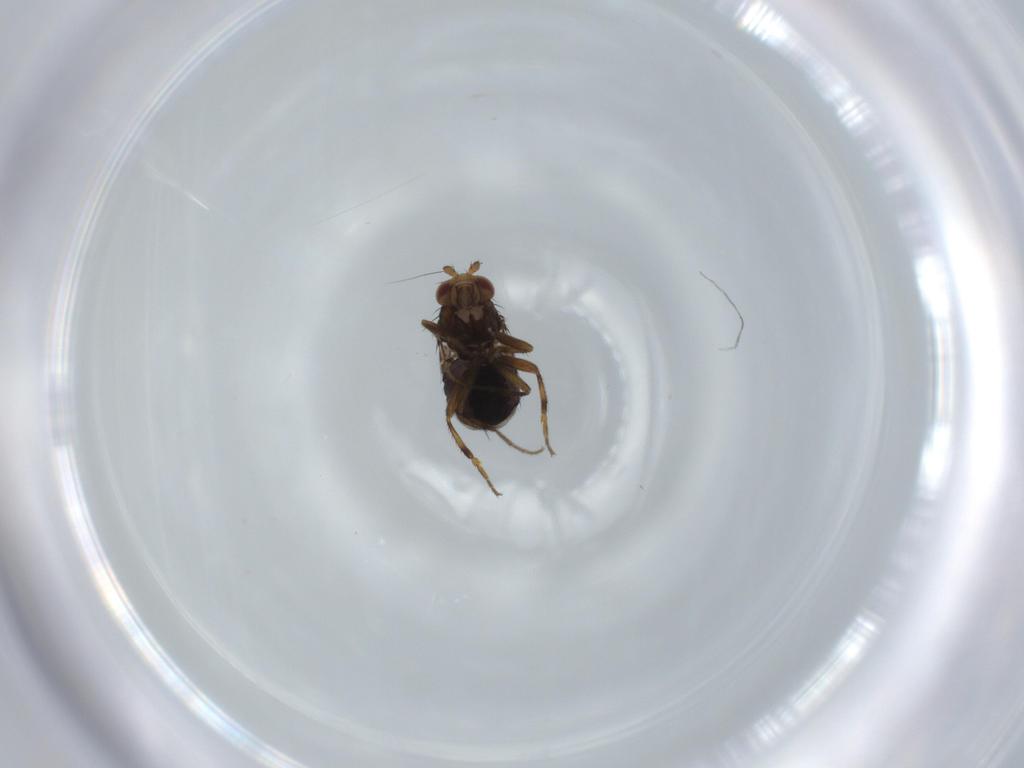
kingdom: Animalia
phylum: Arthropoda
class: Insecta
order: Diptera
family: Sphaeroceridae
